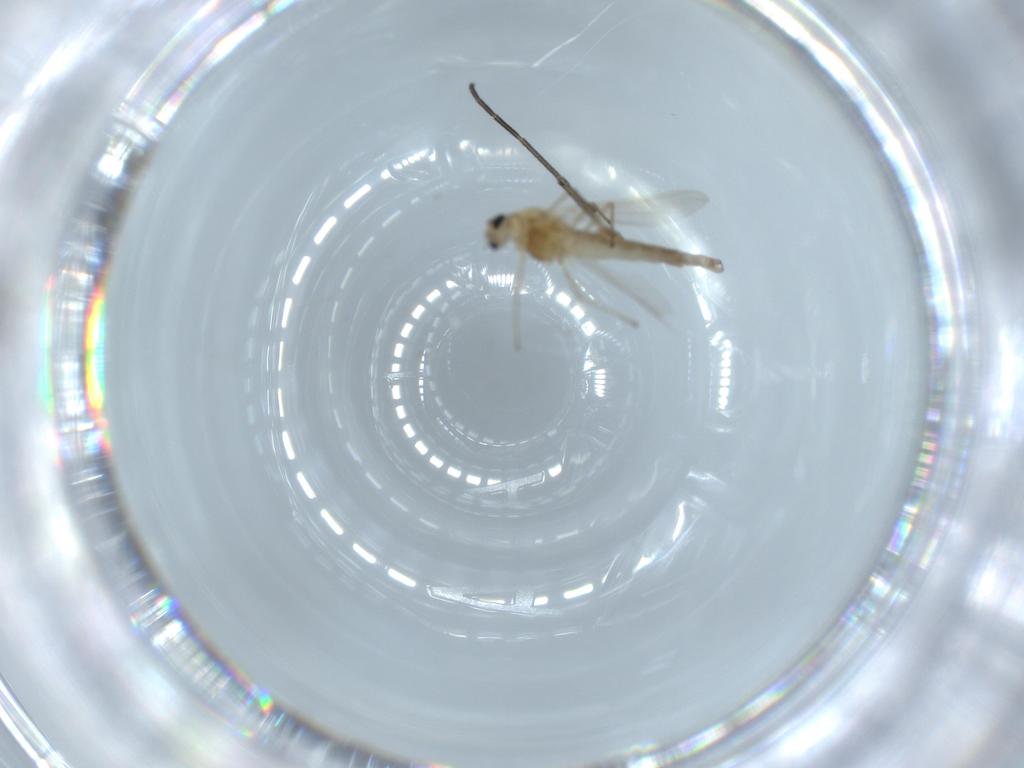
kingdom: Animalia
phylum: Arthropoda
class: Insecta
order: Diptera
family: Chironomidae
